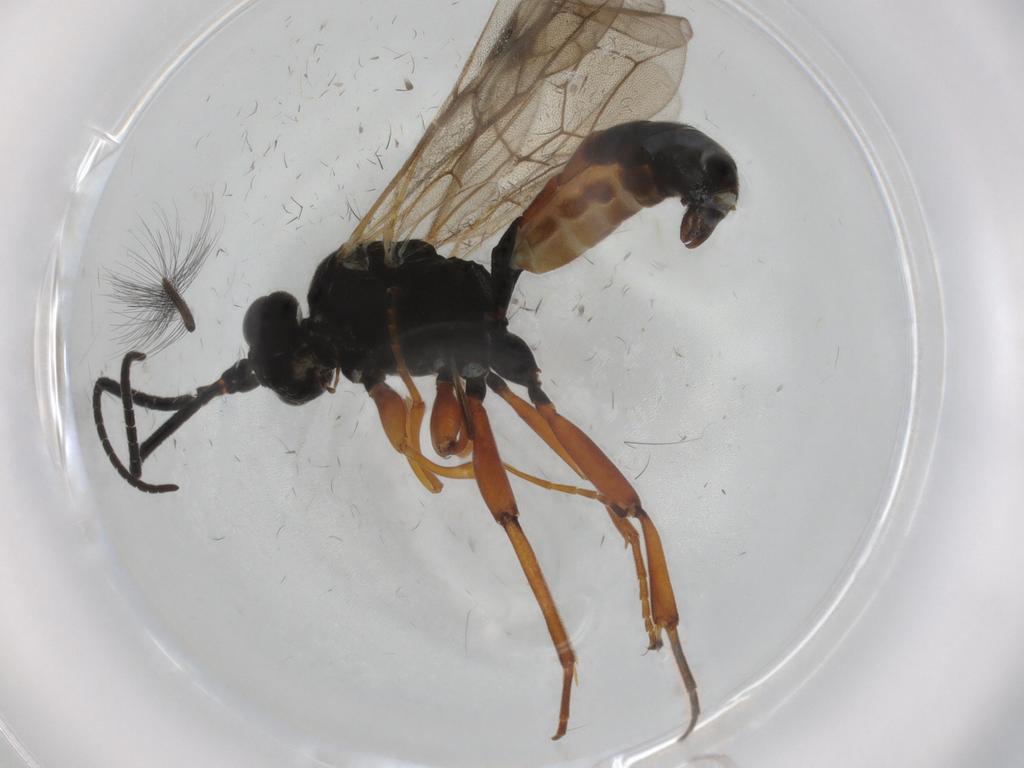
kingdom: Animalia
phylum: Arthropoda
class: Insecta
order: Hymenoptera
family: Ichneumonidae
